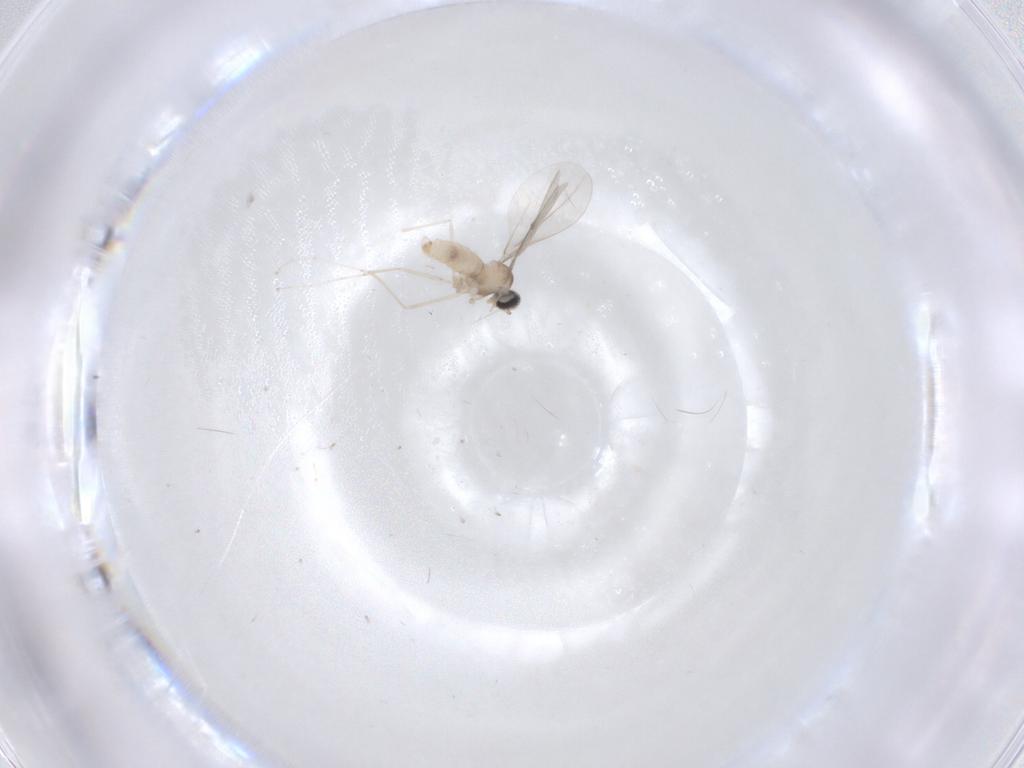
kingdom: Animalia
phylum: Arthropoda
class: Insecta
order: Diptera
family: Cecidomyiidae
